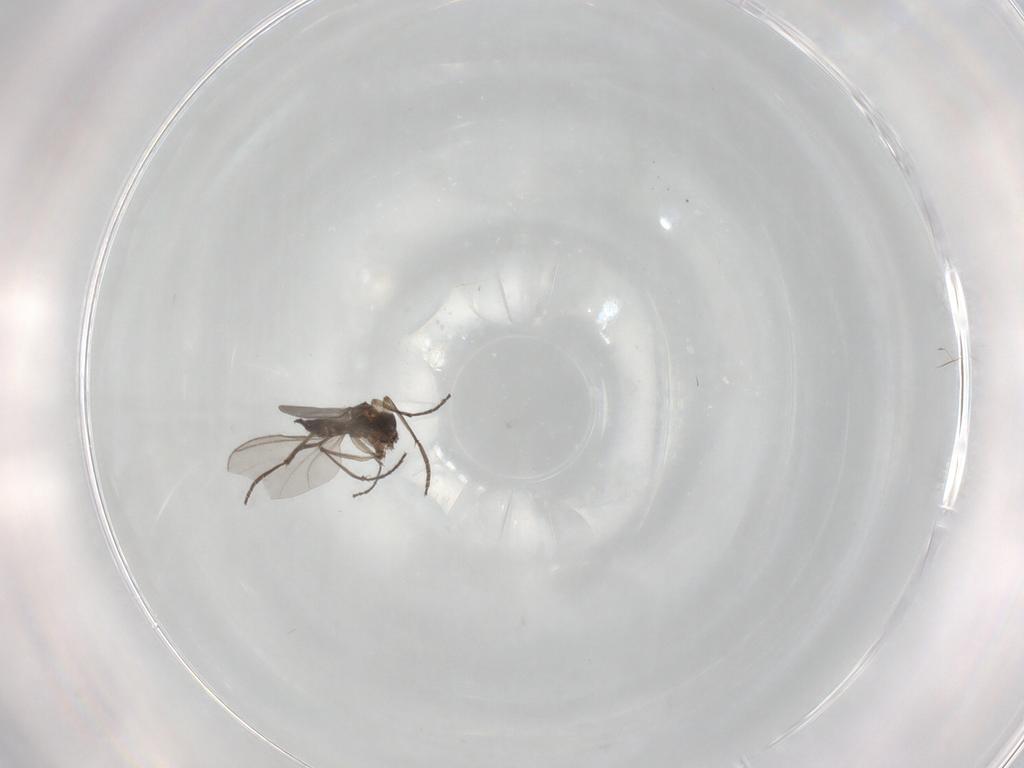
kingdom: Animalia
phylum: Arthropoda
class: Insecta
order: Diptera
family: Sciaridae
